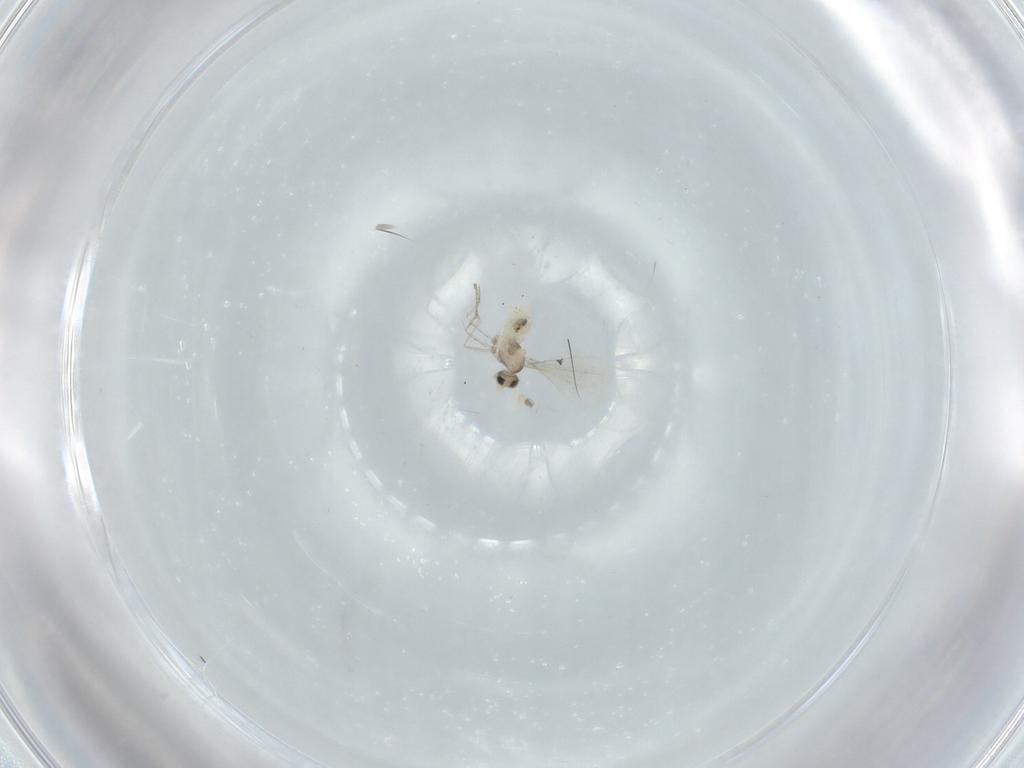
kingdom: Animalia
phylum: Arthropoda
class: Insecta
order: Diptera
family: Cecidomyiidae
